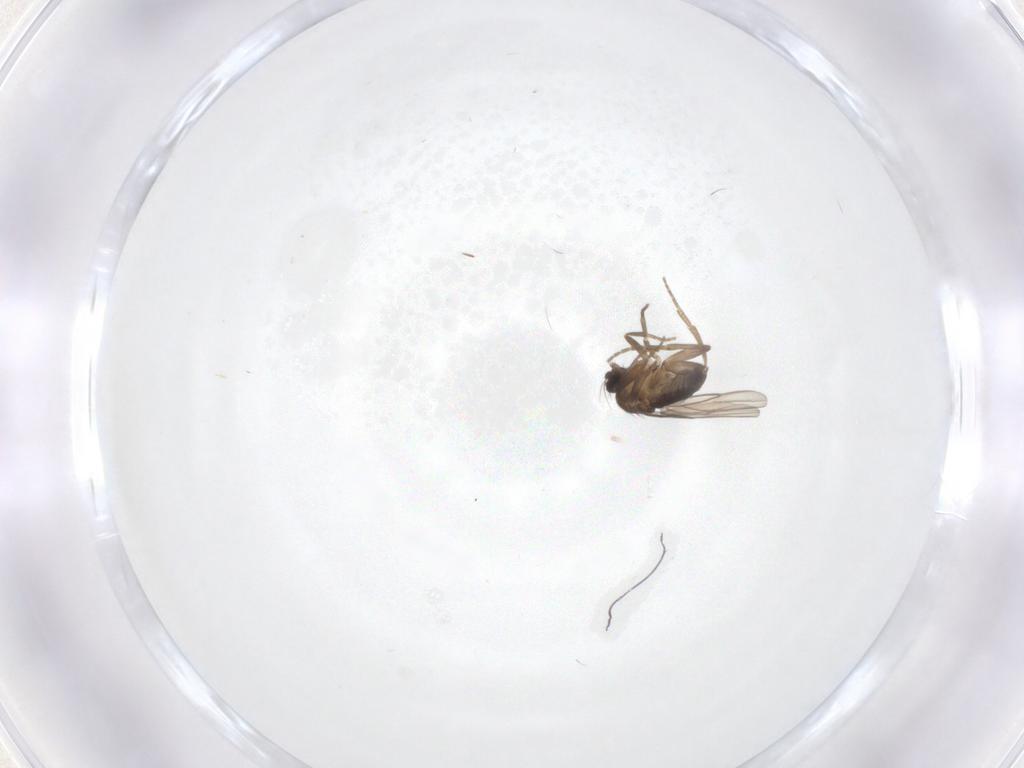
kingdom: Animalia
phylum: Arthropoda
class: Insecta
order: Diptera
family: Phoridae
